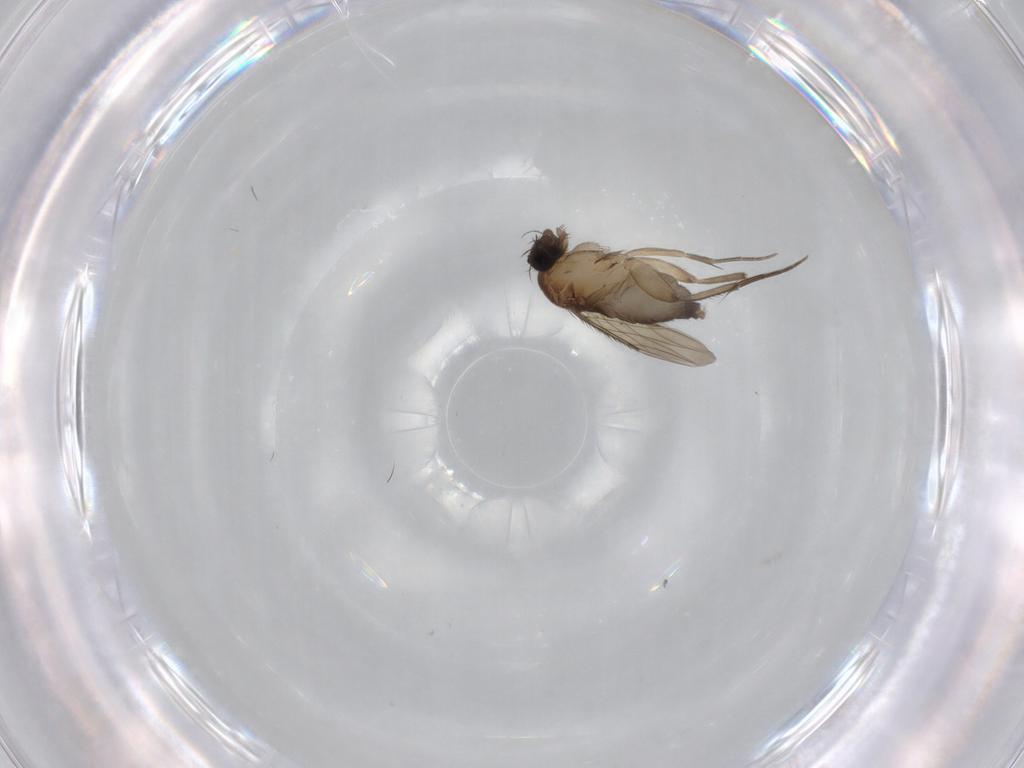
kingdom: Animalia
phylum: Arthropoda
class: Insecta
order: Diptera
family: Phoridae
